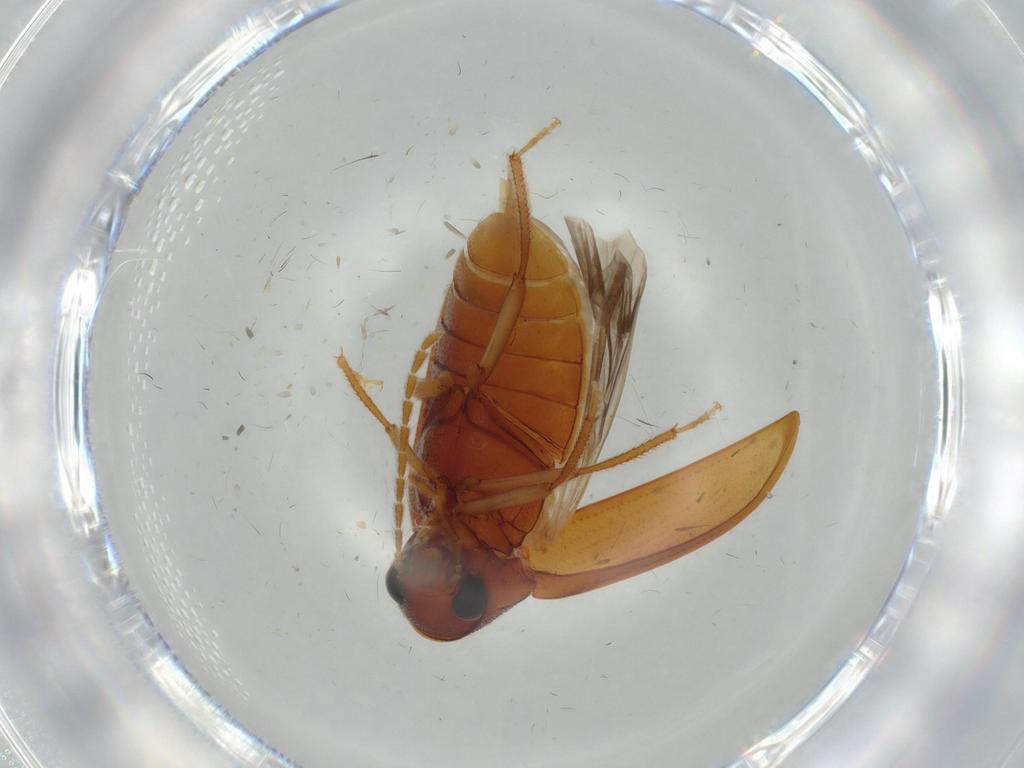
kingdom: Animalia
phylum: Arthropoda
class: Insecta
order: Coleoptera
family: Ptilodactylidae
